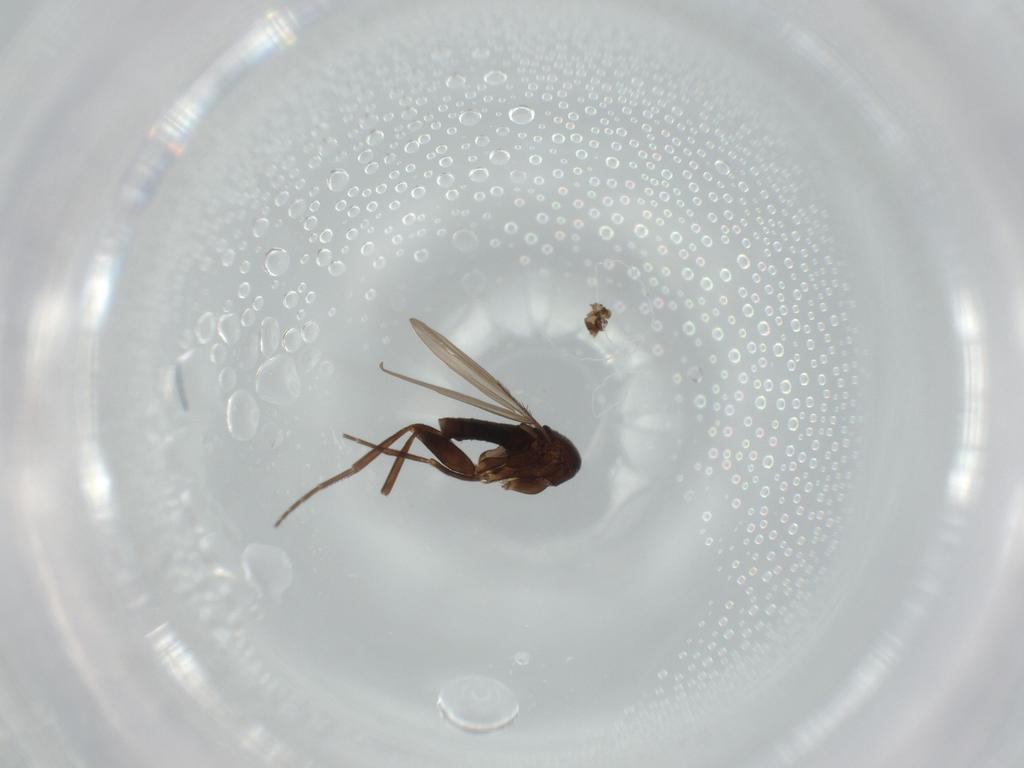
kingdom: Animalia
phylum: Arthropoda
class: Insecta
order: Diptera
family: Phoridae
